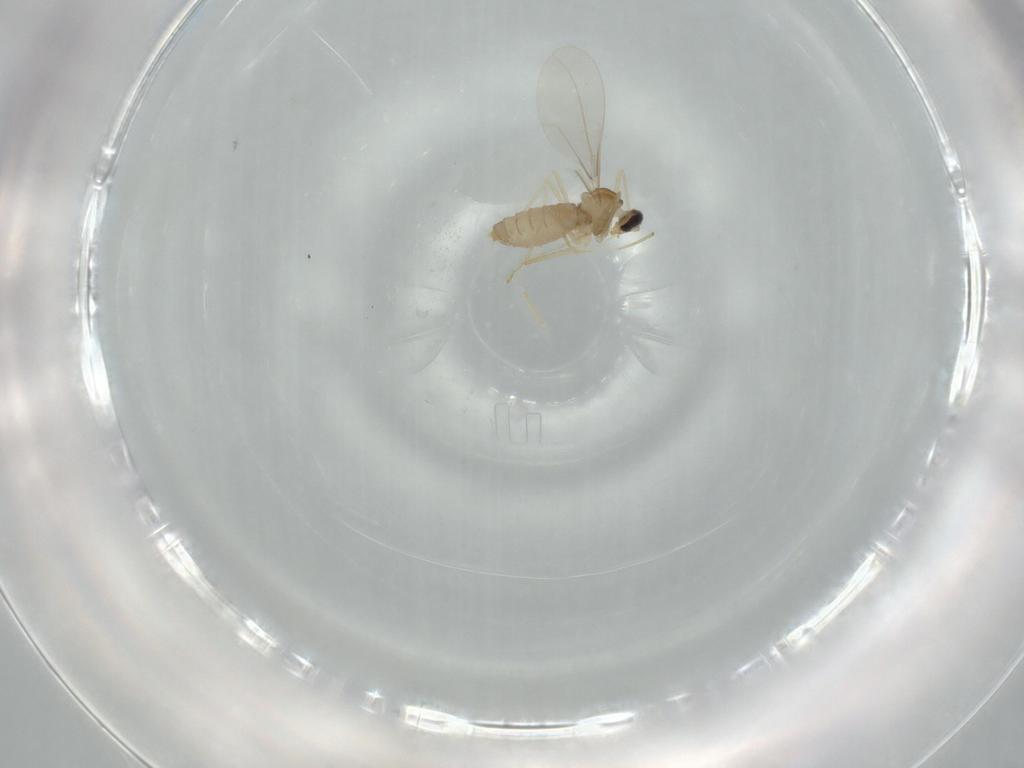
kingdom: Animalia
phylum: Arthropoda
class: Insecta
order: Diptera
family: Cecidomyiidae
